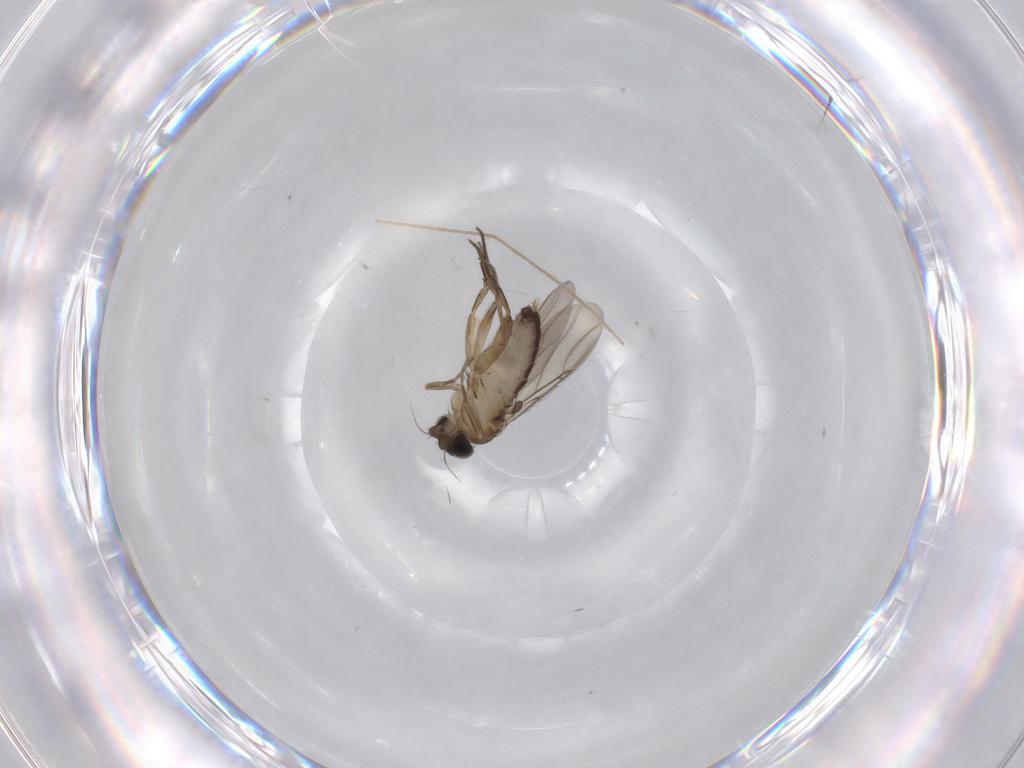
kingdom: Animalia
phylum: Arthropoda
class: Insecta
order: Diptera
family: Phoridae
